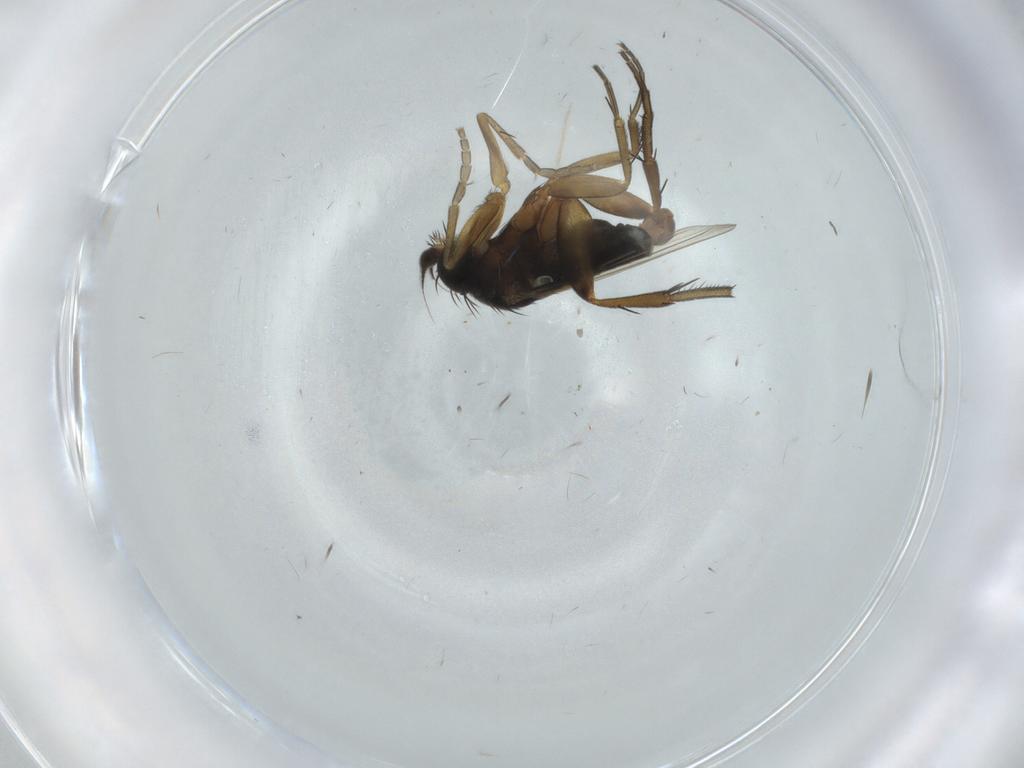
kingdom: Animalia
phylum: Arthropoda
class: Insecta
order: Diptera
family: Phoridae
